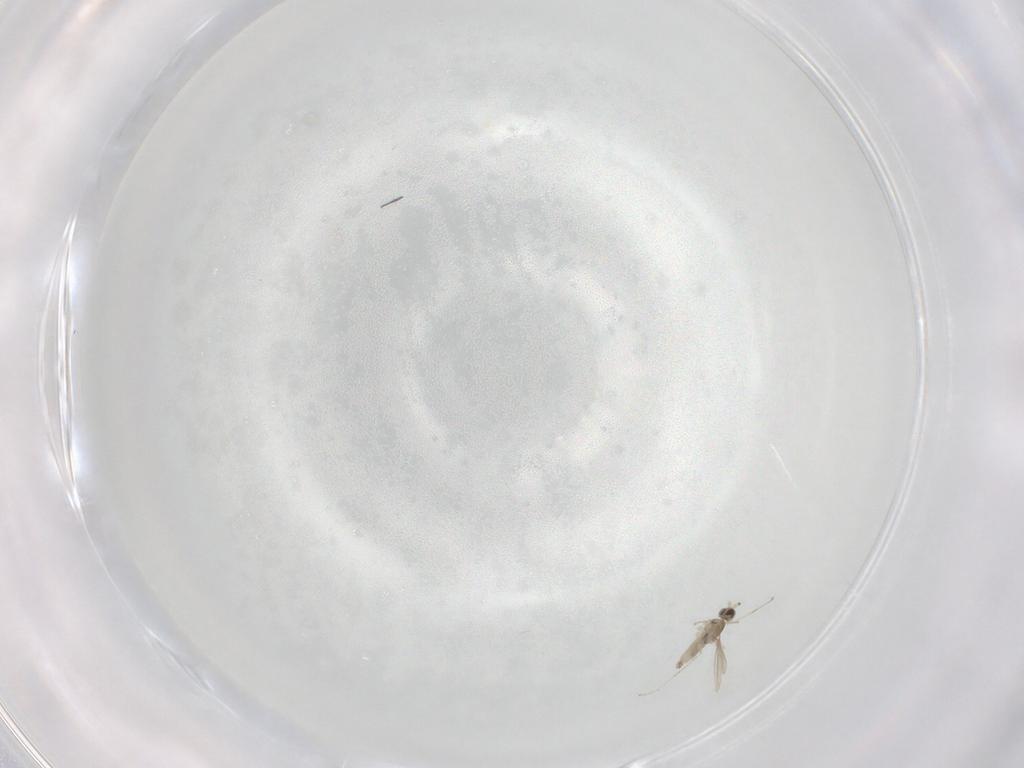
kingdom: Animalia
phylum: Arthropoda
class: Insecta
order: Diptera
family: Cecidomyiidae
